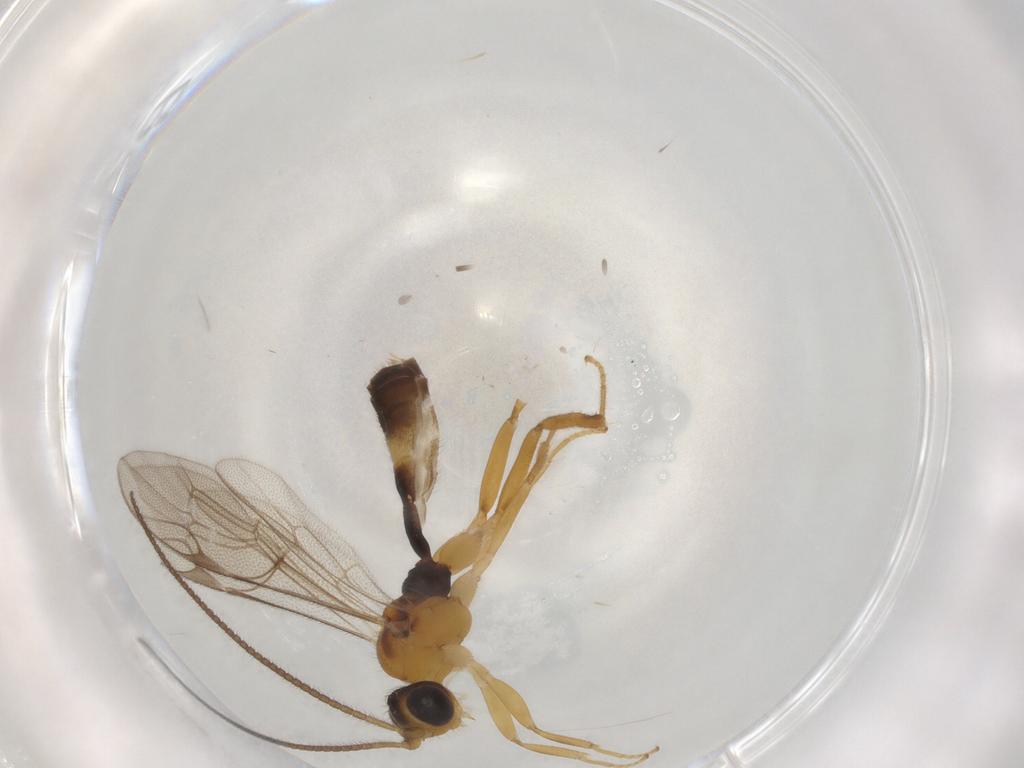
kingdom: Animalia
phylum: Arthropoda
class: Insecta
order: Hymenoptera
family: Ichneumonidae
